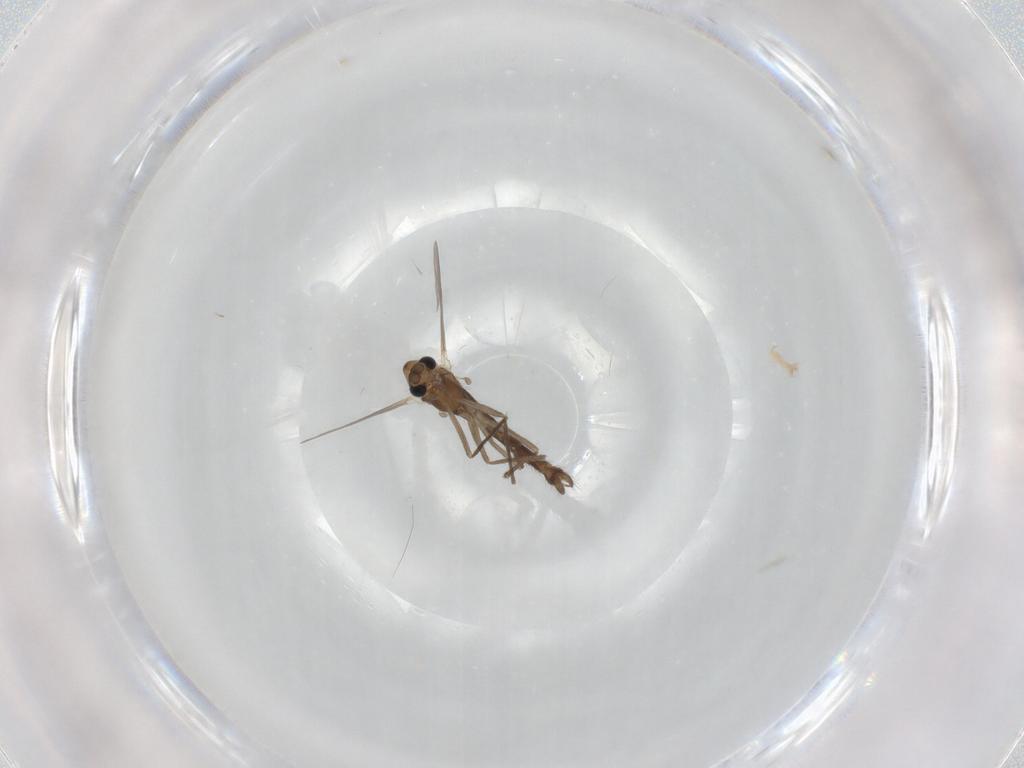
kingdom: Animalia
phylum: Arthropoda
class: Insecta
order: Diptera
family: Chironomidae
